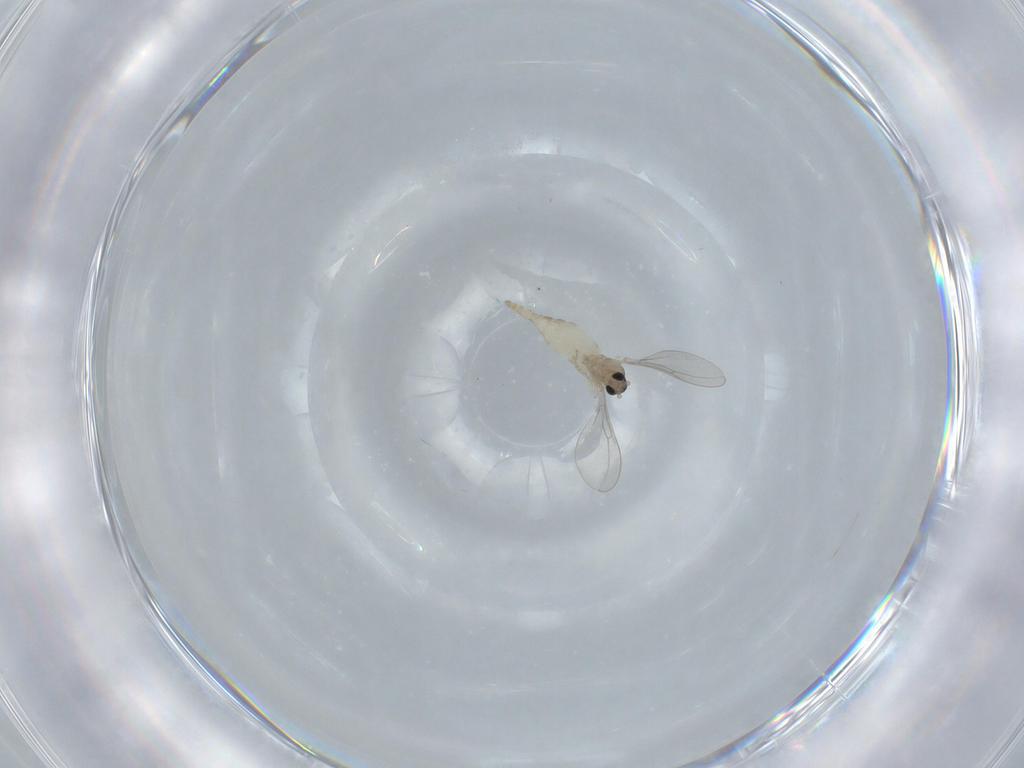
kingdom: Animalia
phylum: Arthropoda
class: Insecta
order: Diptera
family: Cecidomyiidae
